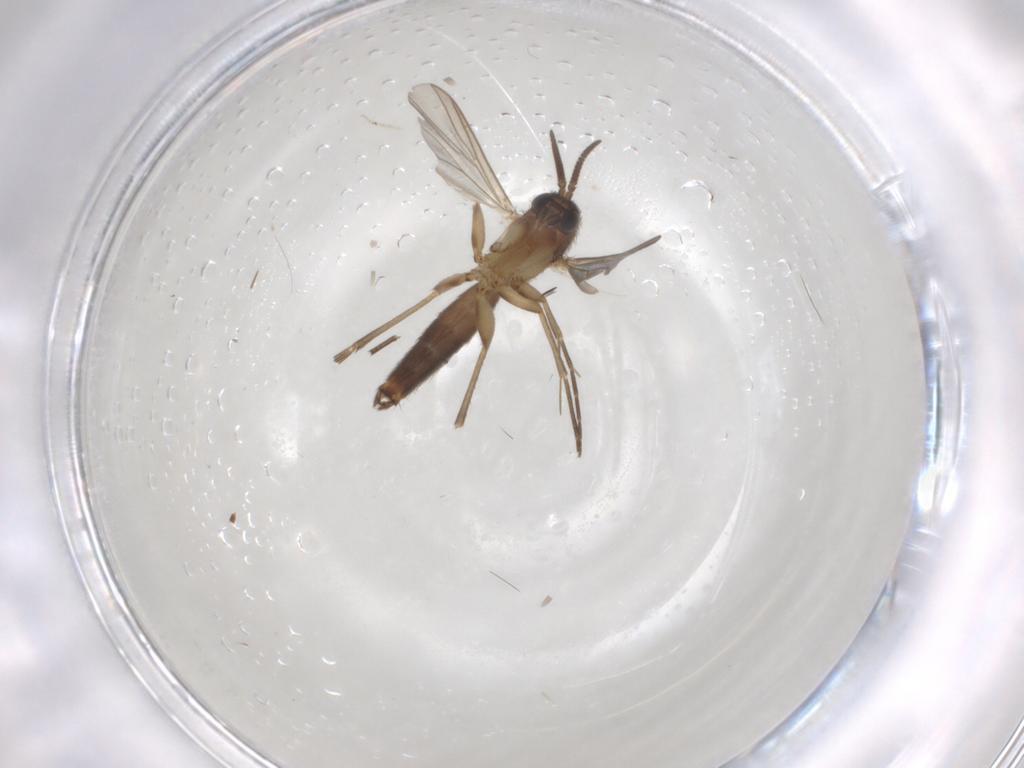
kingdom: Animalia
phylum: Arthropoda
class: Insecta
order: Diptera
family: Mycetophilidae
